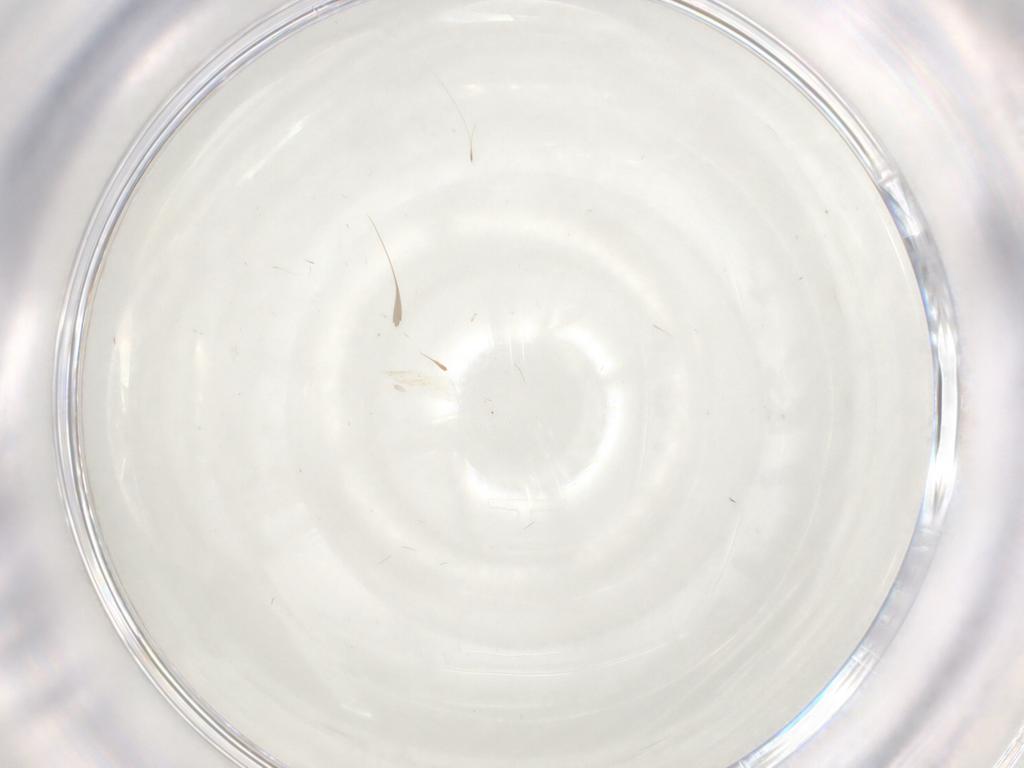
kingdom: Animalia
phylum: Arthropoda
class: Insecta
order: Diptera
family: Chironomidae
